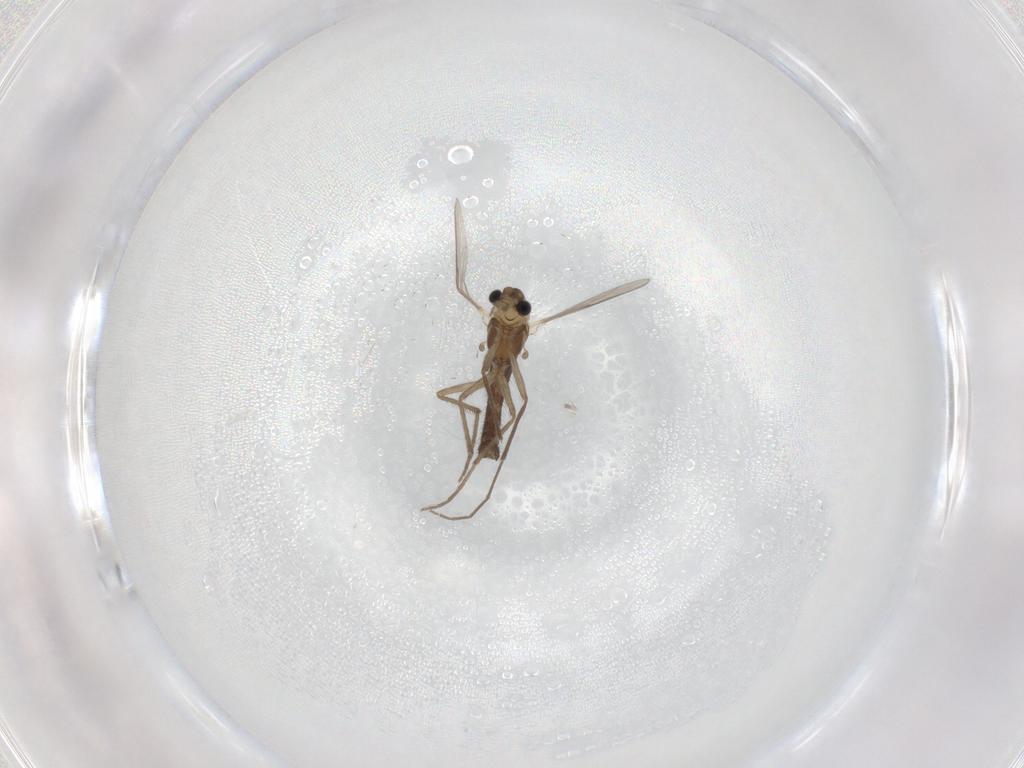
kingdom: Animalia
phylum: Arthropoda
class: Insecta
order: Diptera
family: Chironomidae
